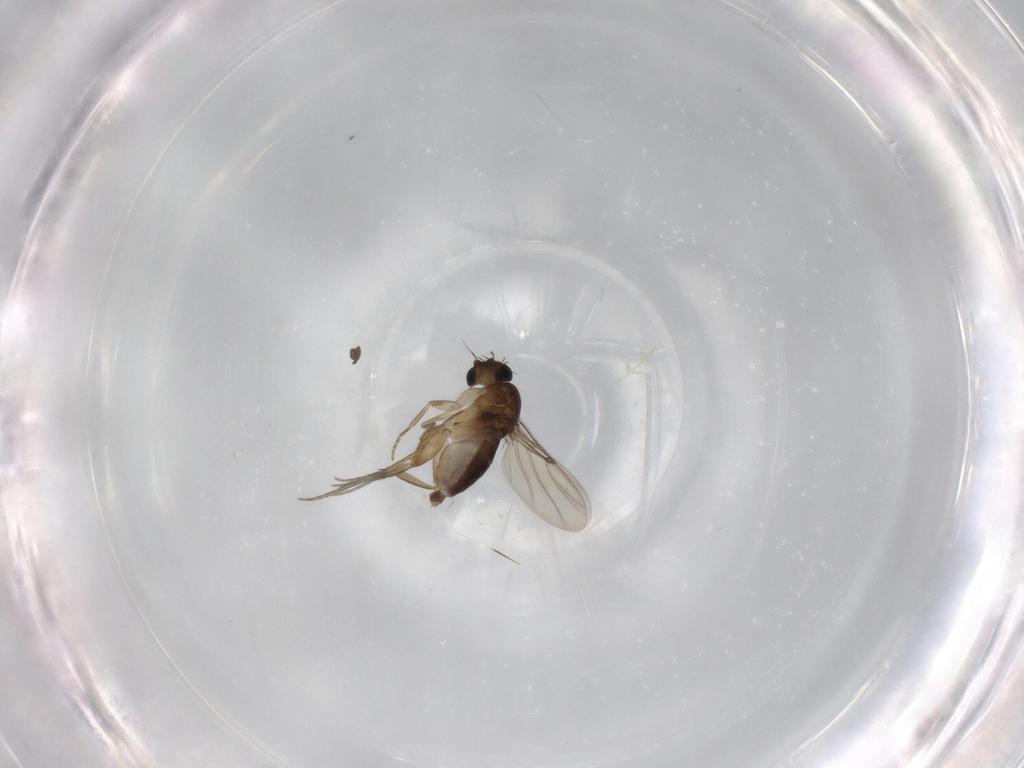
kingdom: Animalia
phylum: Arthropoda
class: Insecta
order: Diptera
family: Phoridae
